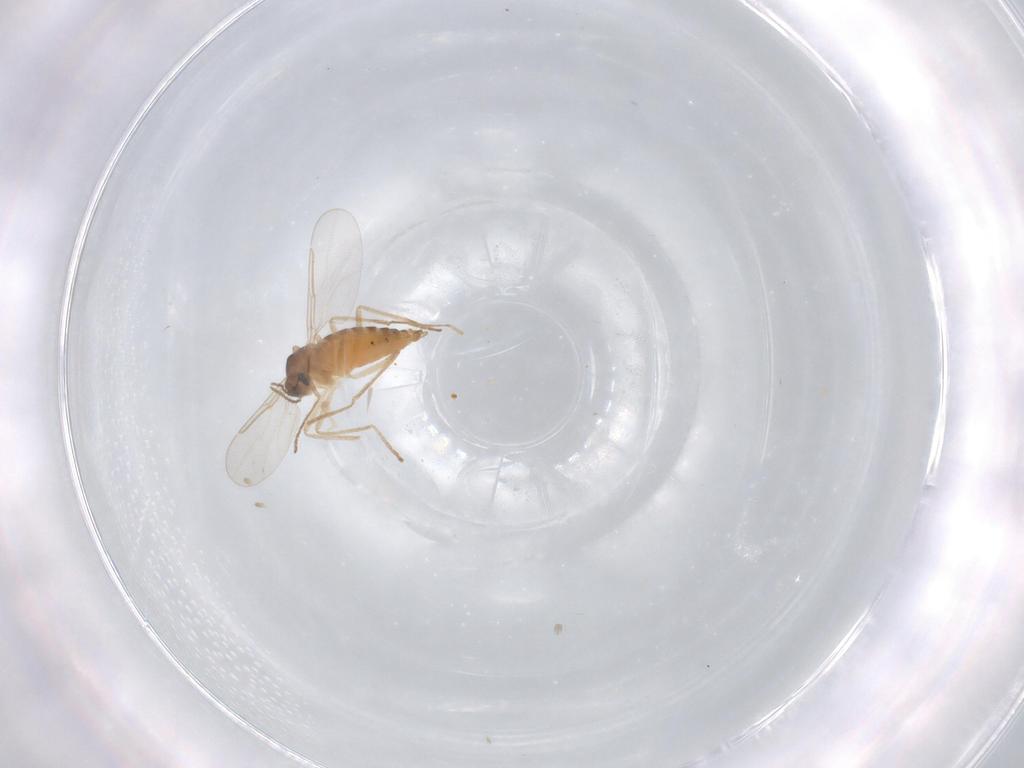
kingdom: Animalia
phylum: Arthropoda
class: Insecta
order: Diptera
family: Cecidomyiidae
